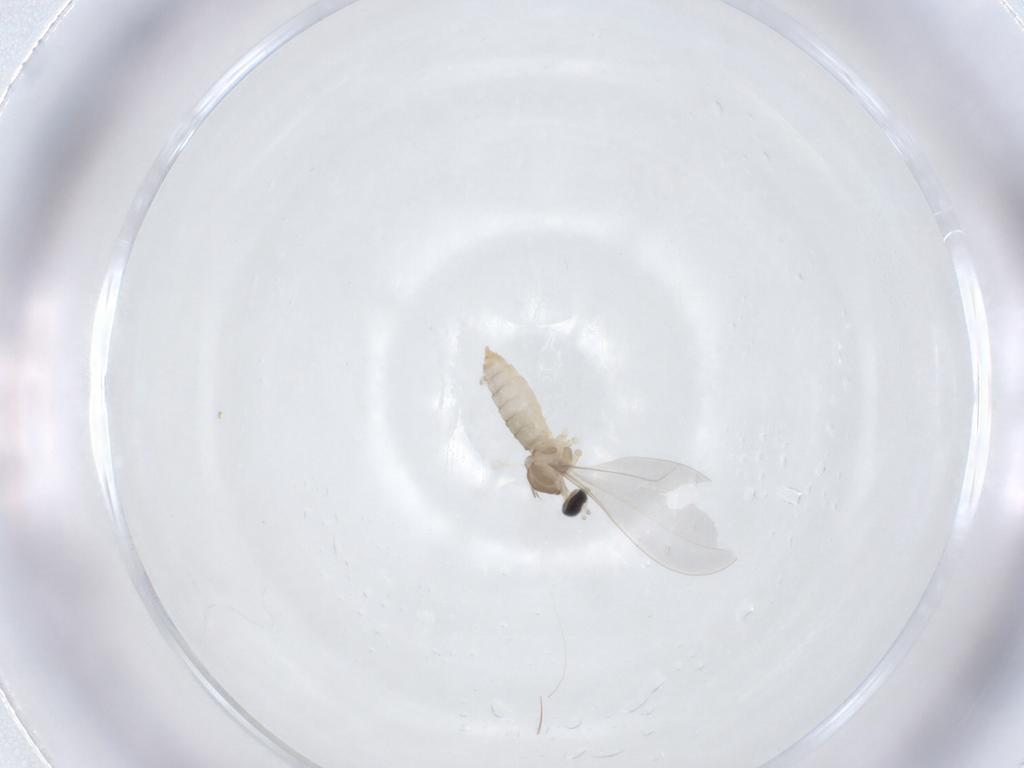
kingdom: Animalia
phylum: Arthropoda
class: Insecta
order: Diptera
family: Cecidomyiidae
